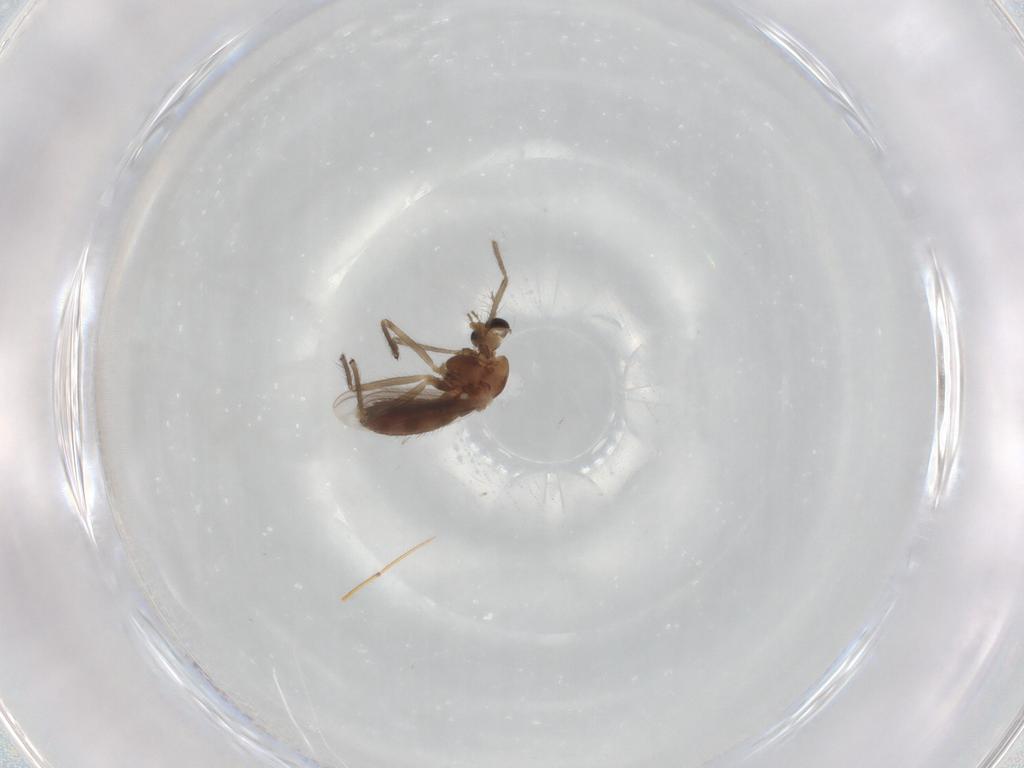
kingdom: Animalia
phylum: Arthropoda
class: Insecta
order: Diptera
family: Chironomidae
